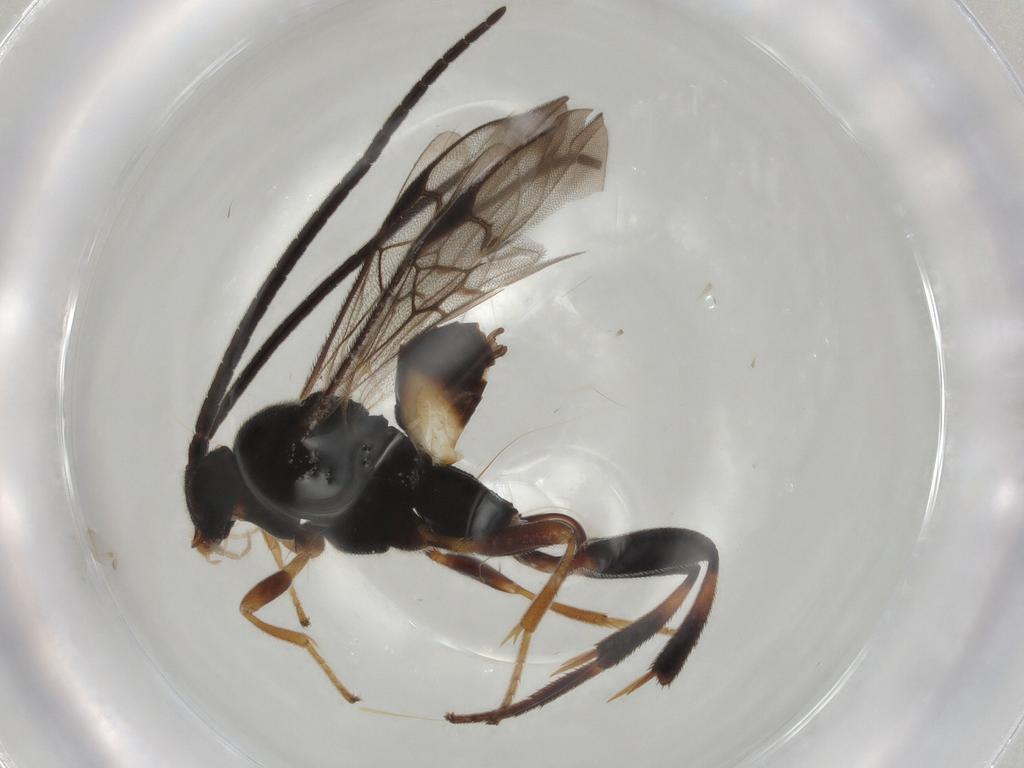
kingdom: Animalia
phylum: Arthropoda
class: Insecta
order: Hymenoptera
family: Braconidae
